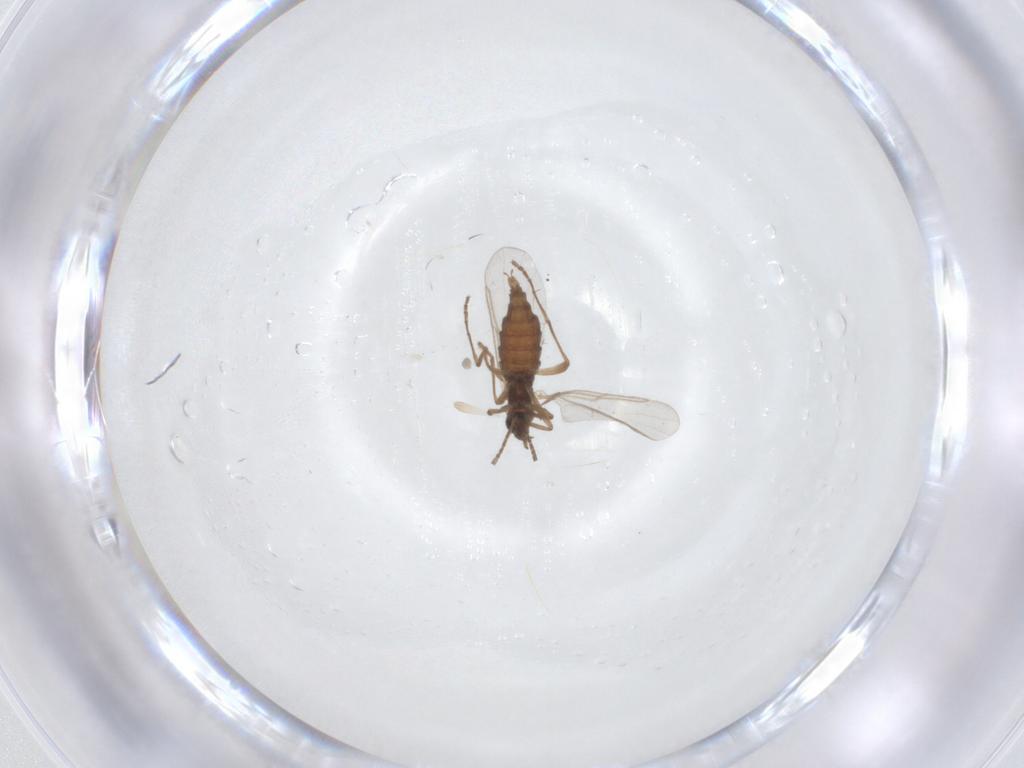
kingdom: Animalia
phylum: Arthropoda
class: Insecta
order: Diptera
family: Cecidomyiidae
